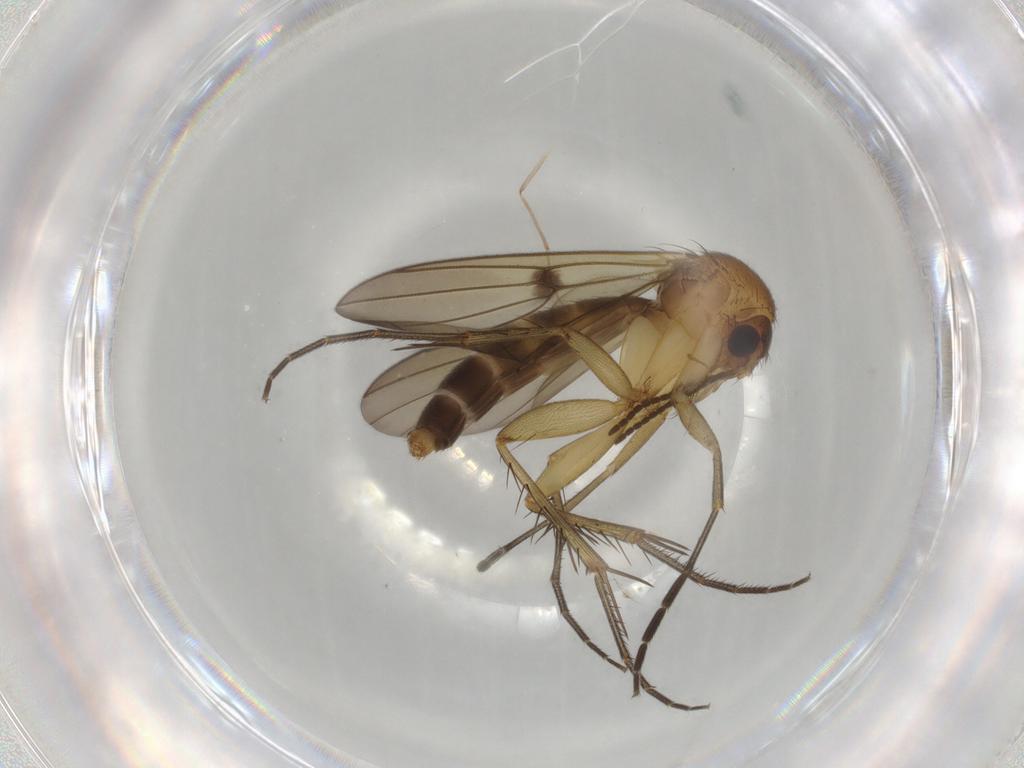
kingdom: Animalia
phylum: Arthropoda
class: Insecta
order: Diptera
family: Mycetophilidae
